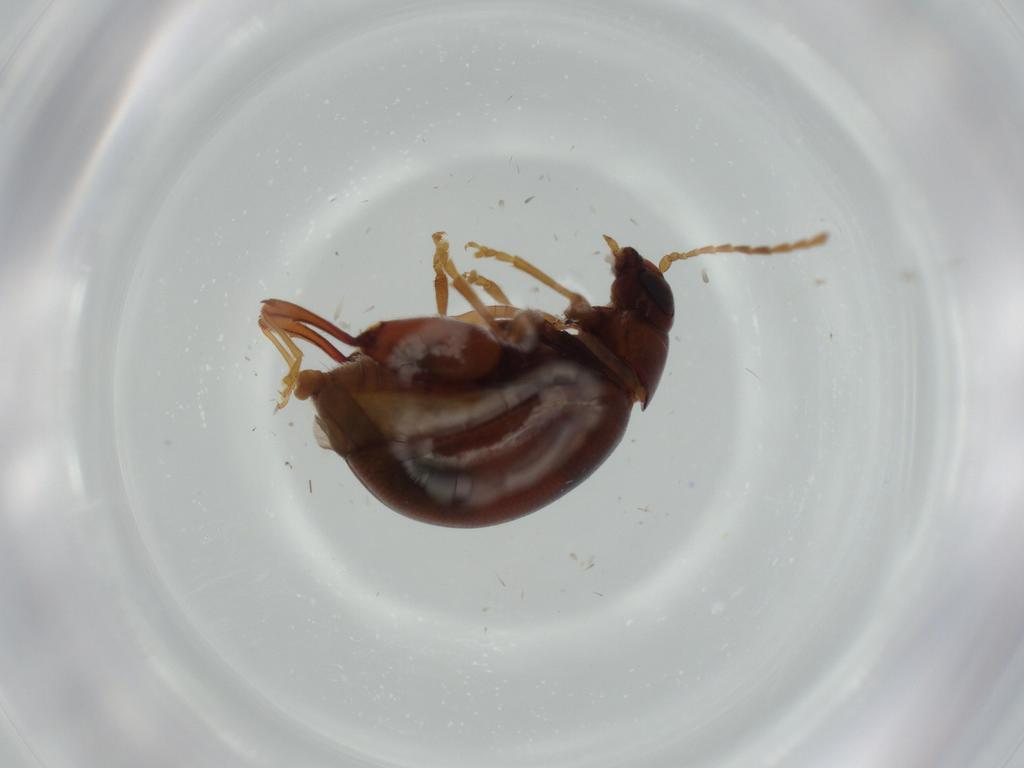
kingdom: Animalia
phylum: Arthropoda
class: Insecta
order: Coleoptera
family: Chrysomelidae
